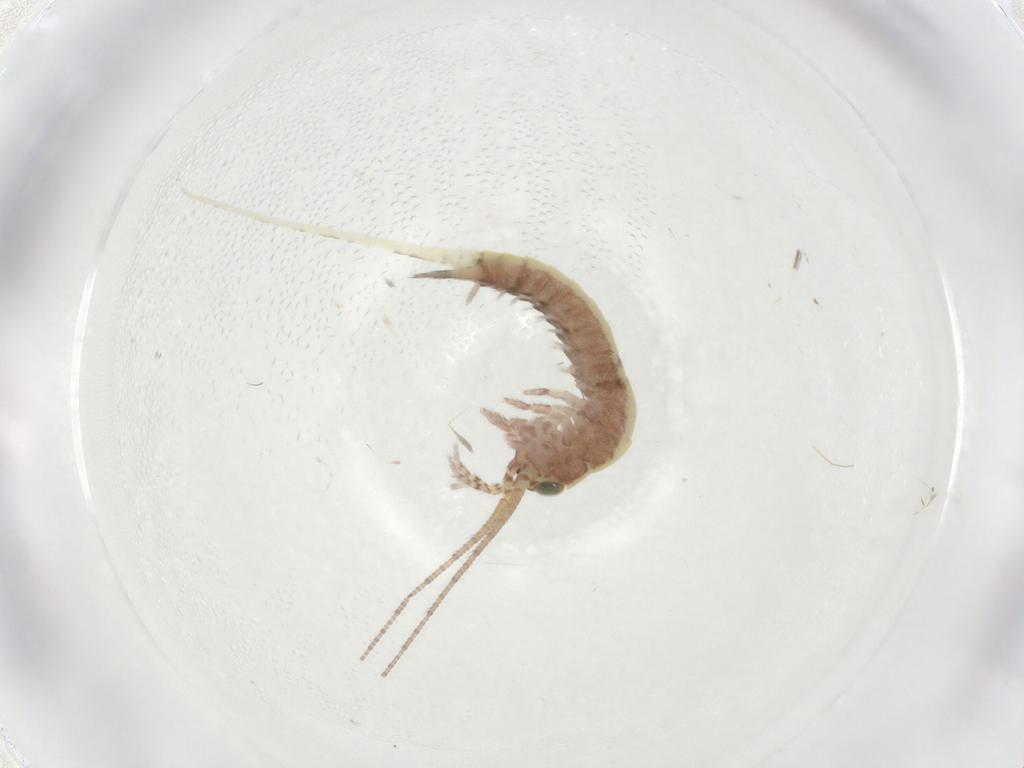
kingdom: Animalia
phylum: Arthropoda
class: Insecta
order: Archaeognatha
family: Machilidae
